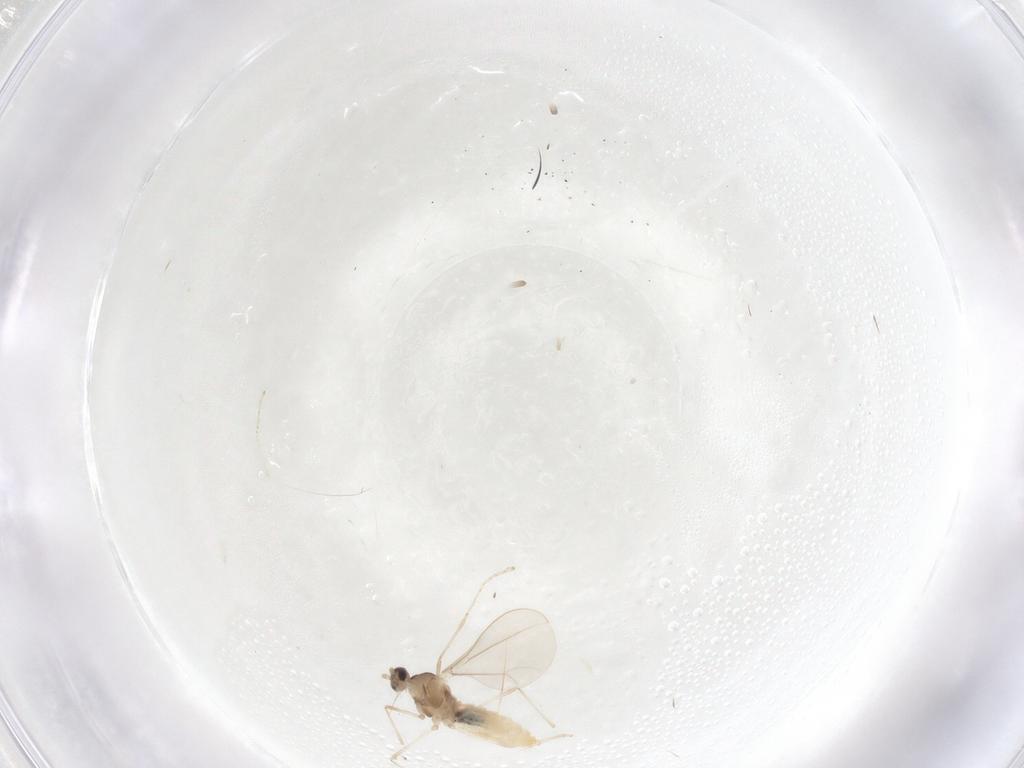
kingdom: Animalia
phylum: Arthropoda
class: Insecta
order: Diptera
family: Cecidomyiidae
